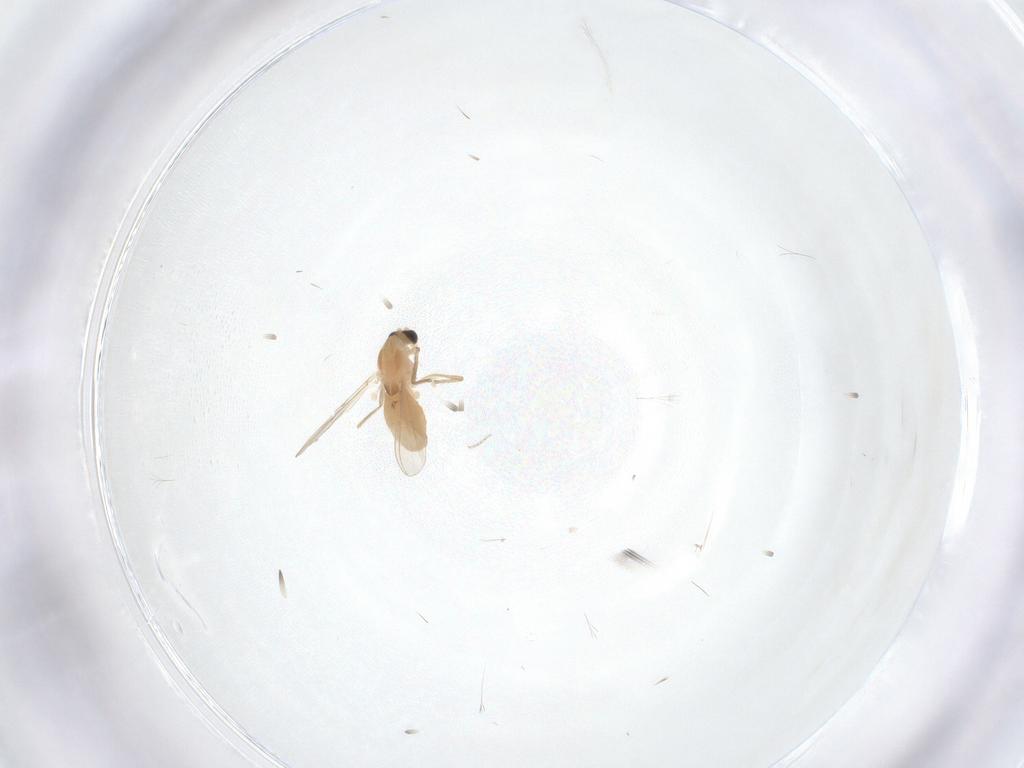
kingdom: Animalia
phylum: Arthropoda
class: Insecta
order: Diptera
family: Chironomidae
